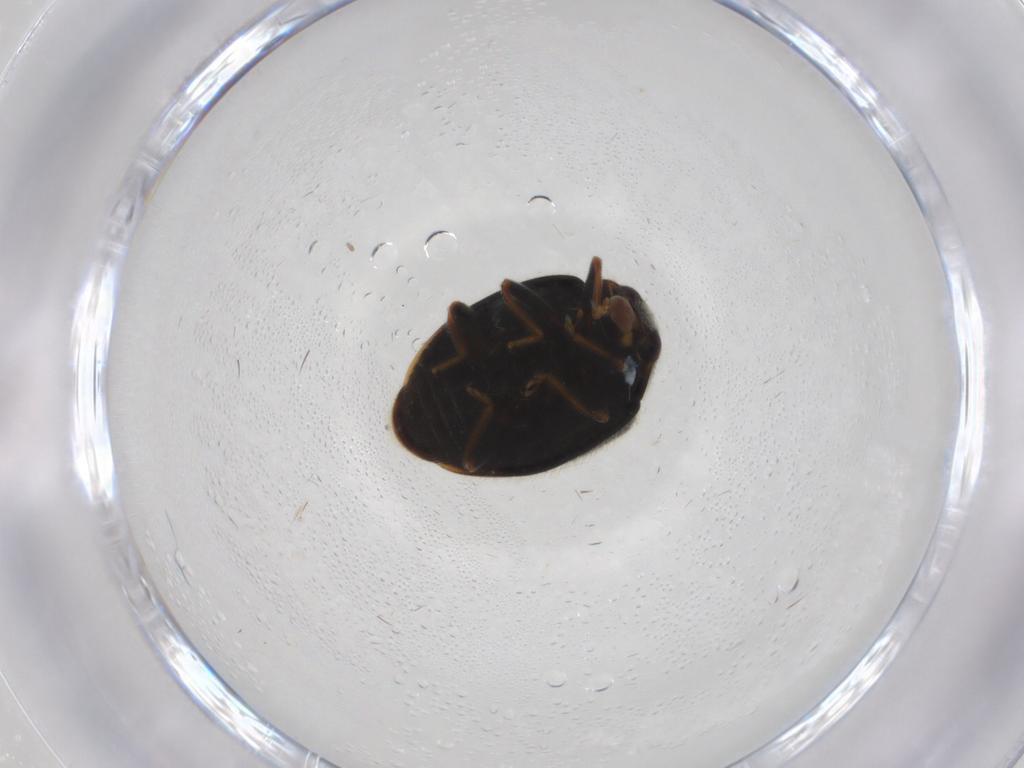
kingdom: Animalia
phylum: Arthropoda
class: Insecta
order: Coleoptera
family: Coccinellidae
